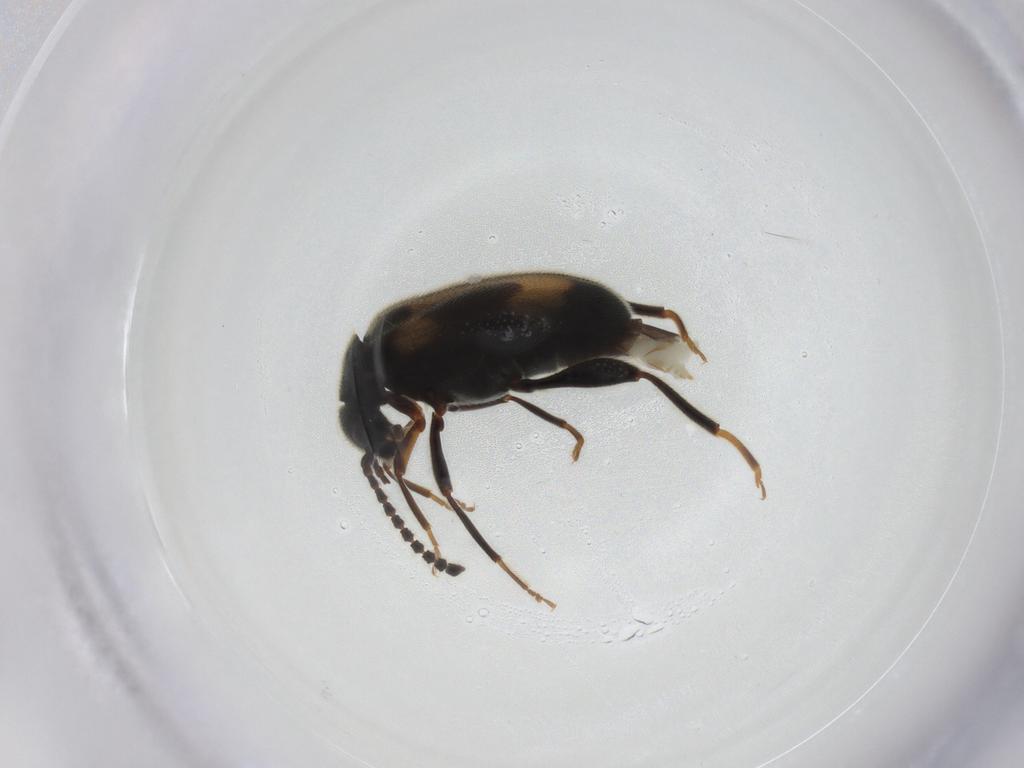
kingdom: Animalia
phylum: Arthropoda
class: Insecta
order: Coleoptera
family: Aderidae
